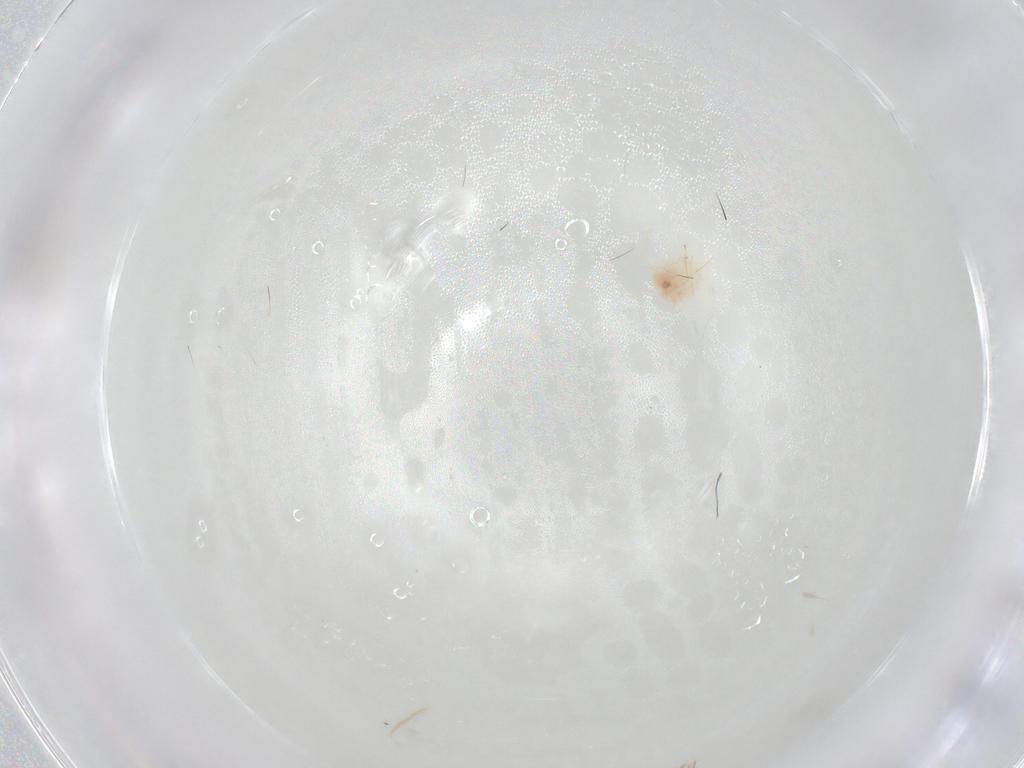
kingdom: Animalia
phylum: Arthropoda
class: Arachnida
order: Trombidiformes
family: Anystidae
